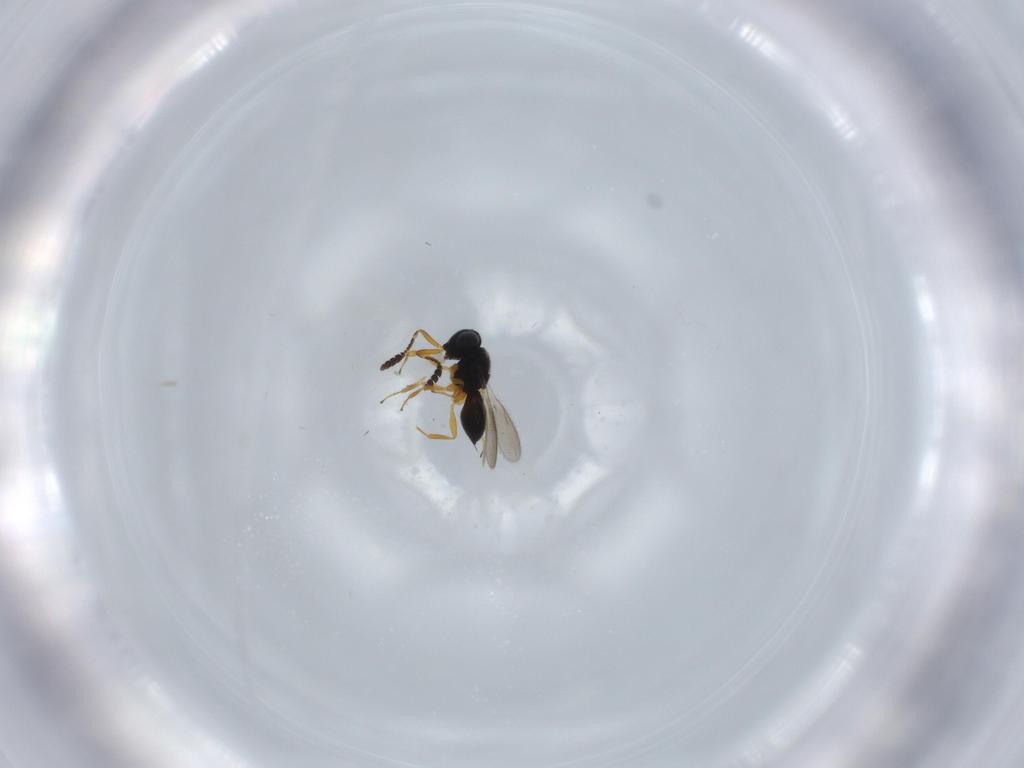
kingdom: Animalia
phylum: Arthropoda
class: Insecta
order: Hymenoptera
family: Scelionidae
